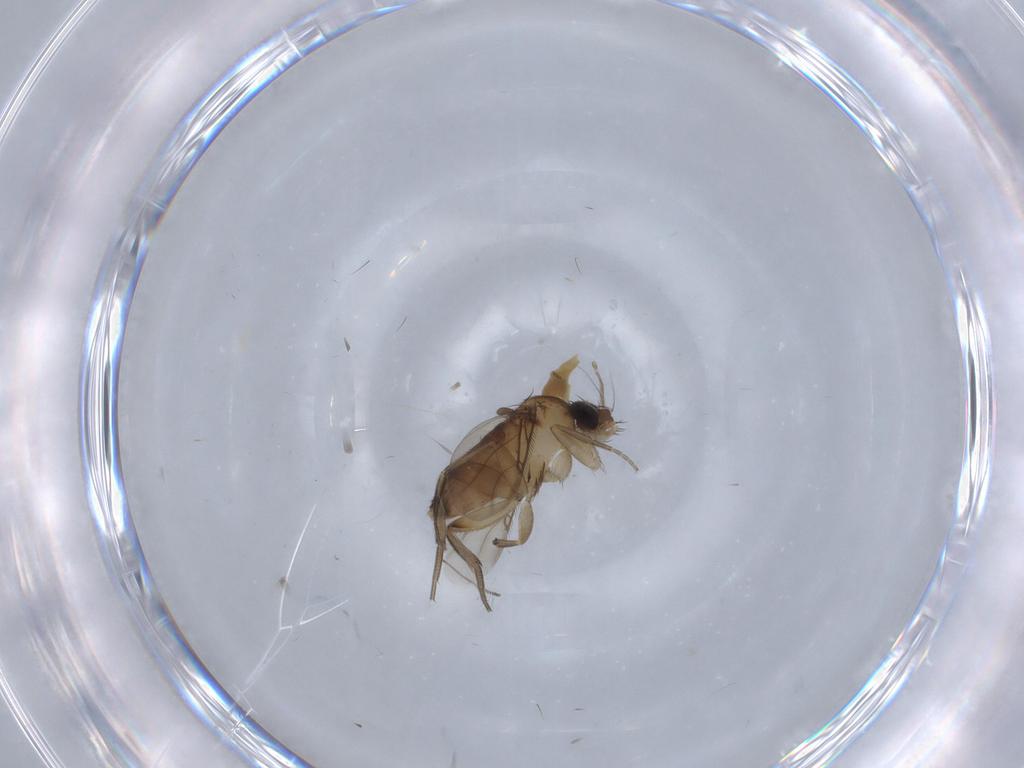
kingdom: Animalia
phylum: Arthropoda
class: Insecta
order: Diptera
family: Phoridae
